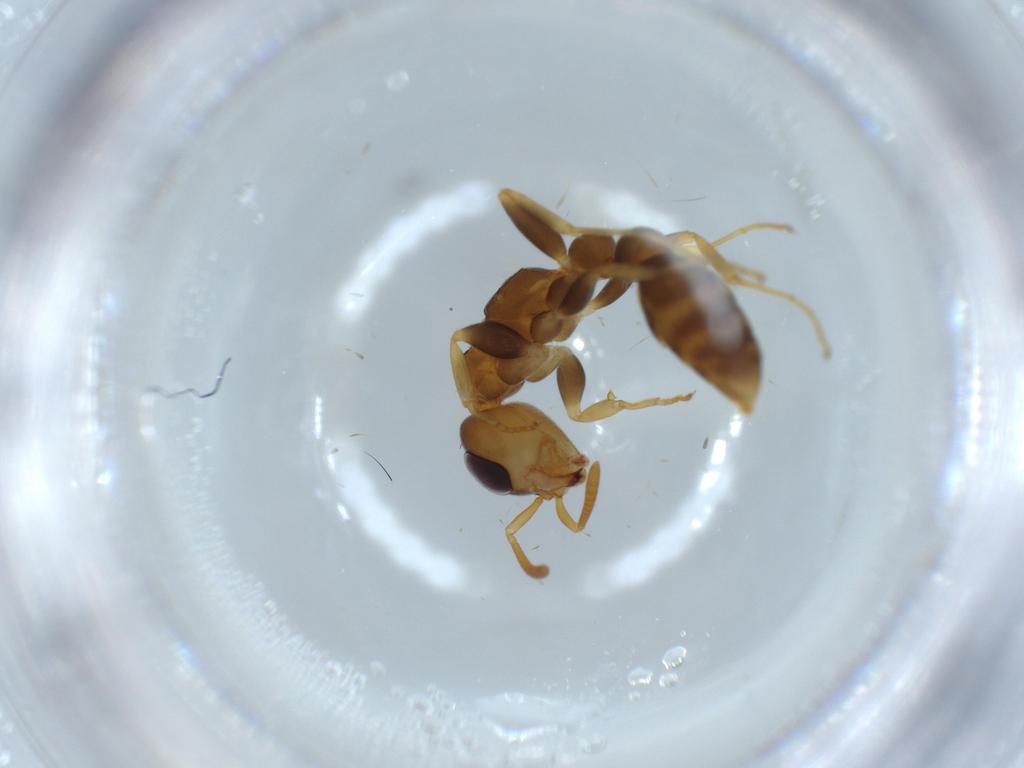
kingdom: Animalia
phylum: Arthropoda
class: Insecta
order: Hymenoptera
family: Formicidae
